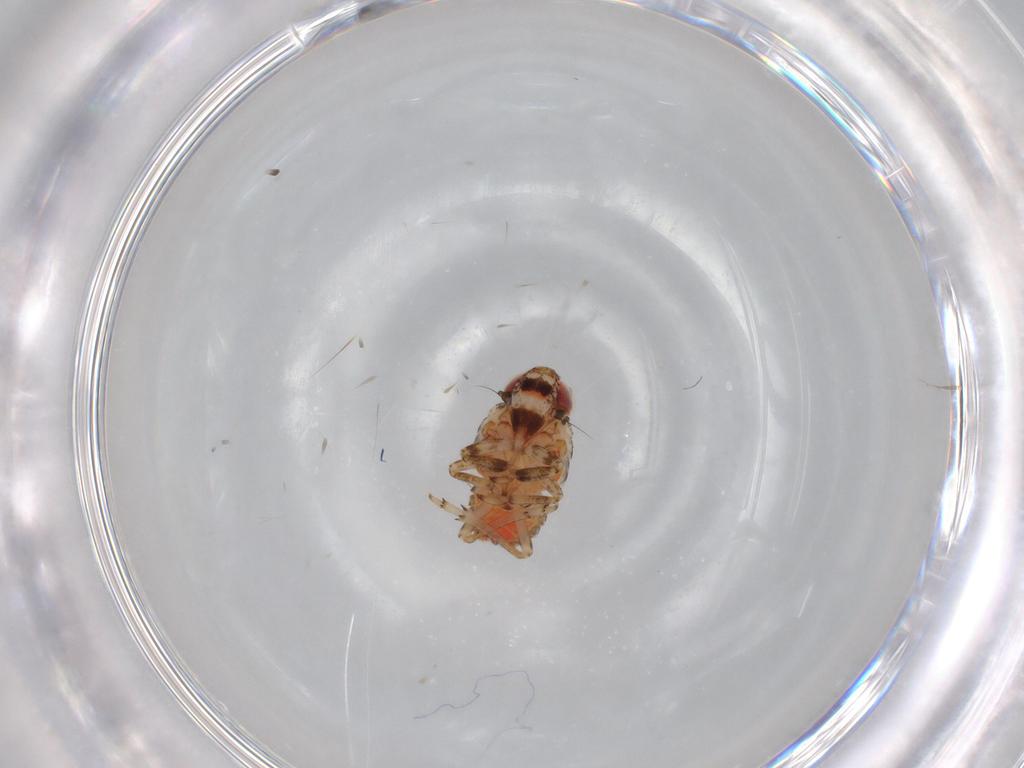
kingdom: Animalia
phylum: Arthropoda
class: Insecta
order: Hemiptera
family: Issidae
